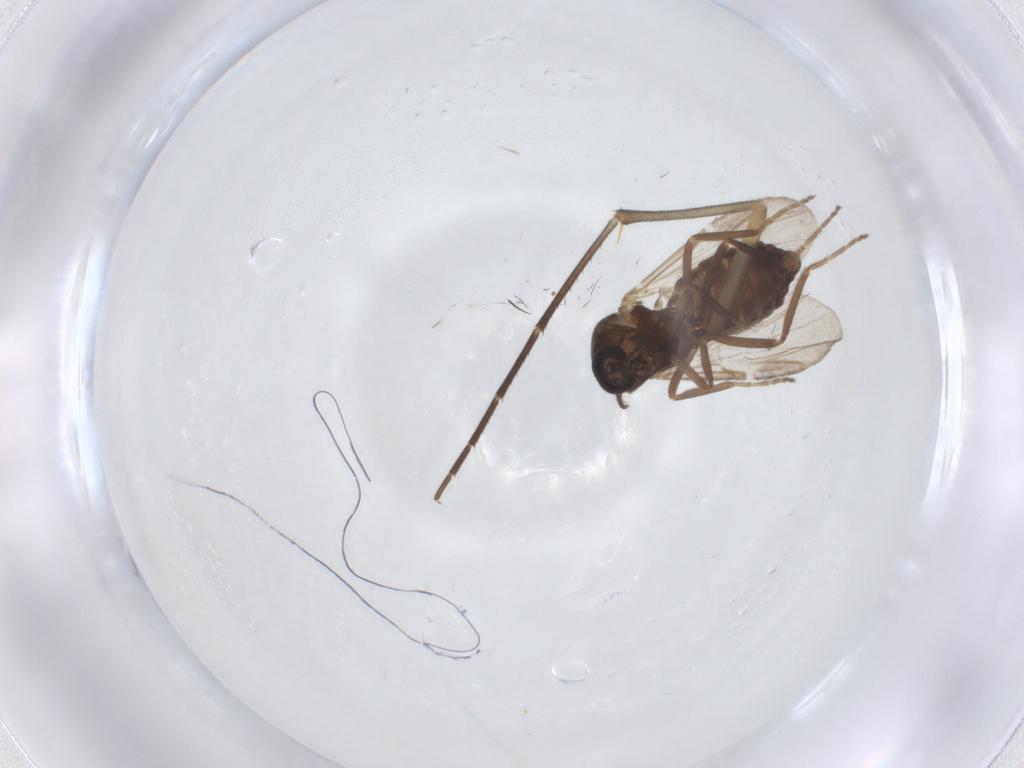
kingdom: Animalia
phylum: Arthropoda
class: Insecta
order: Diptera
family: Ceratopogonidae
